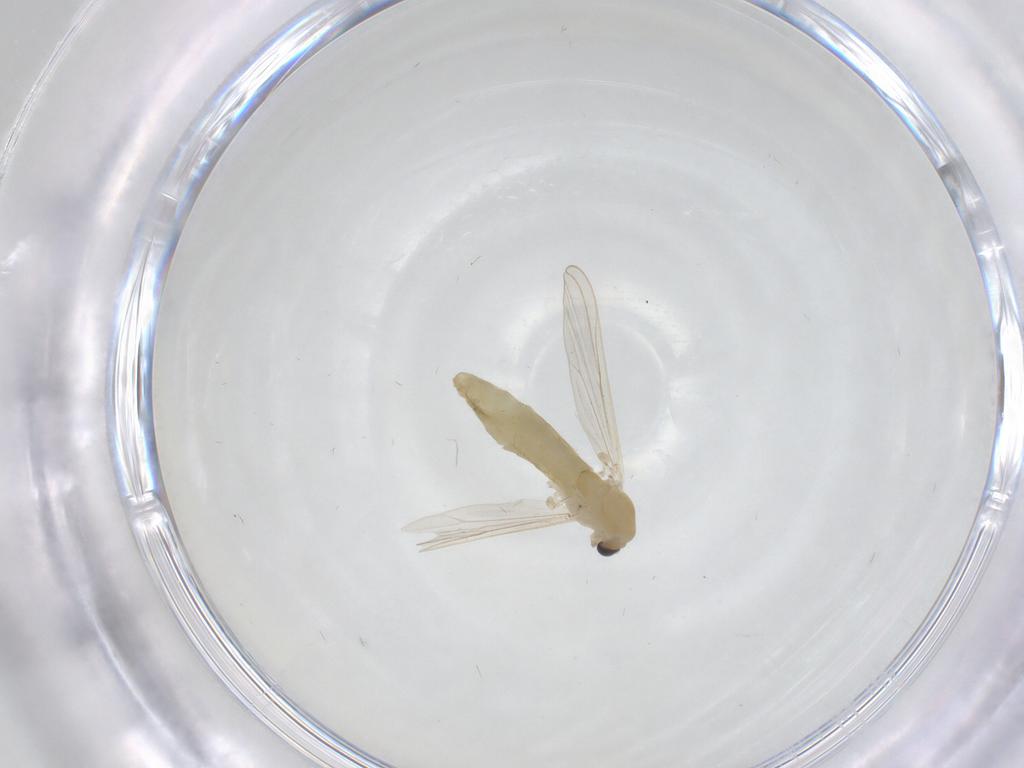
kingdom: Animalia
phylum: Arthropoda
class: Insecta
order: Diptera
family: Chironomidae
